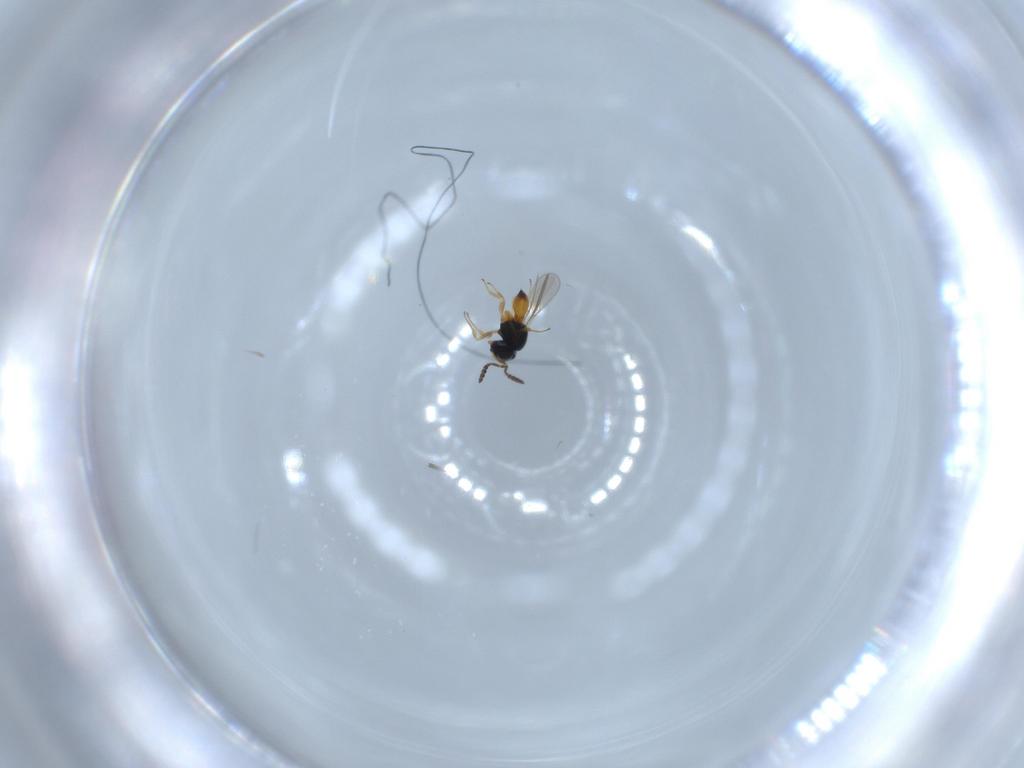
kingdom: Animalia
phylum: Arthropoda
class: Insecta
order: Hymenoptera
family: Scelionidae
